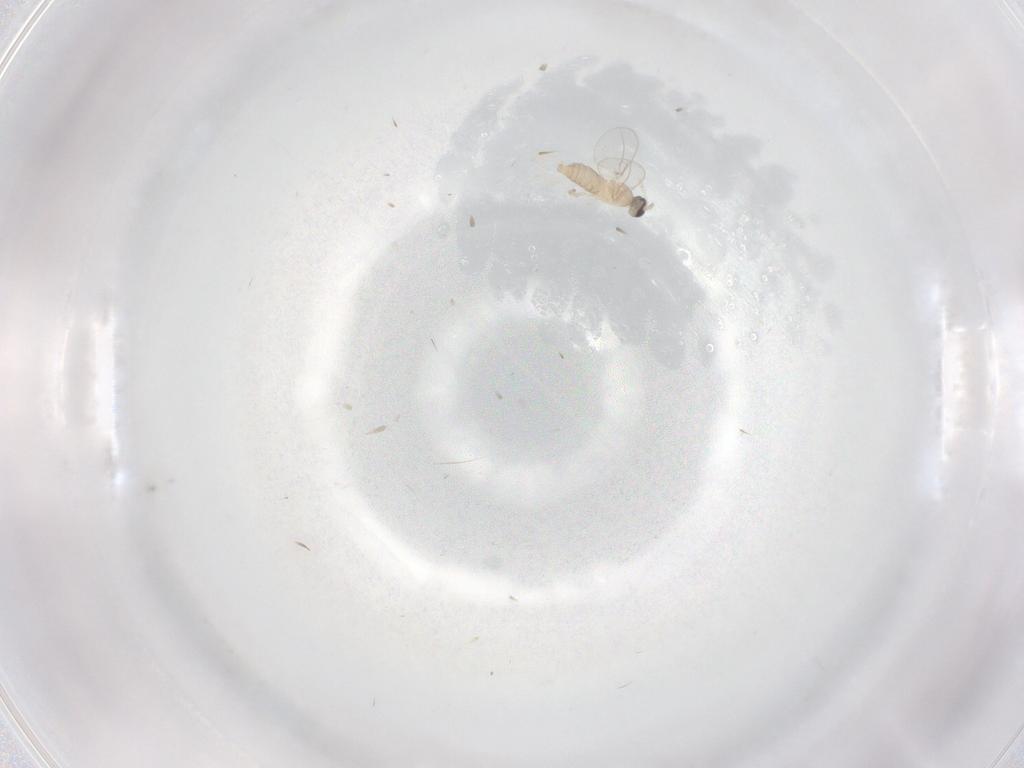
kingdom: Animalia
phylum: Arthropoda
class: Insecta
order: Diptera
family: Cecidomyiidae
